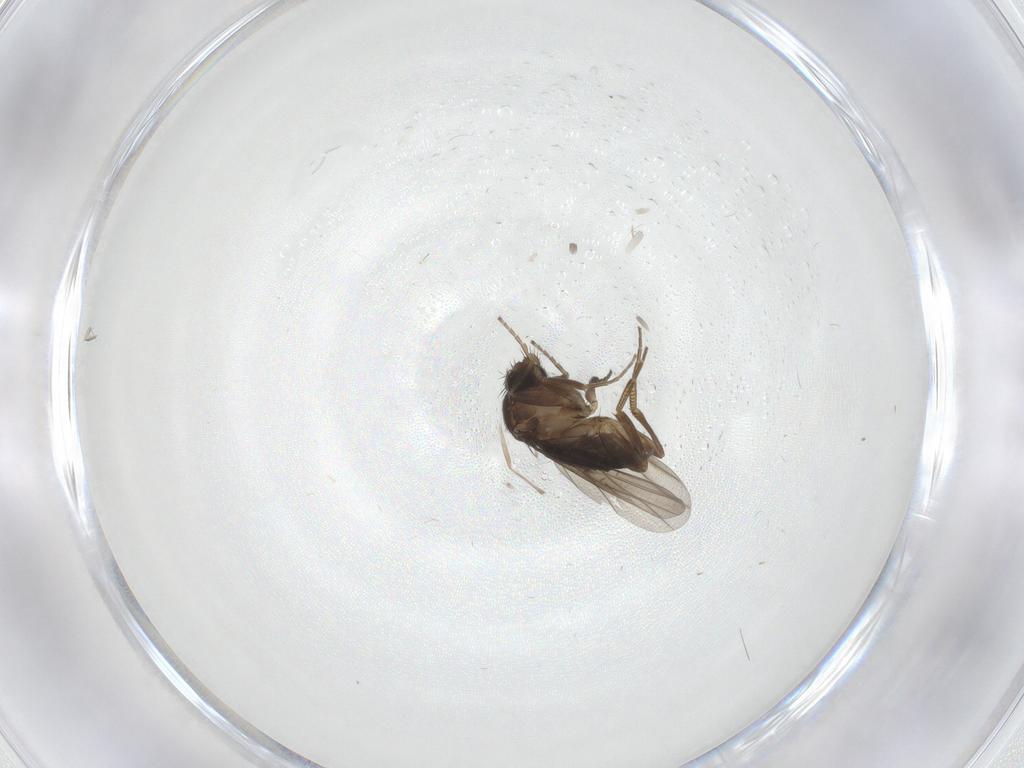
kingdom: Animalia
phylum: Arthropoda
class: Insecta
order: Diptera
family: Phoridae
